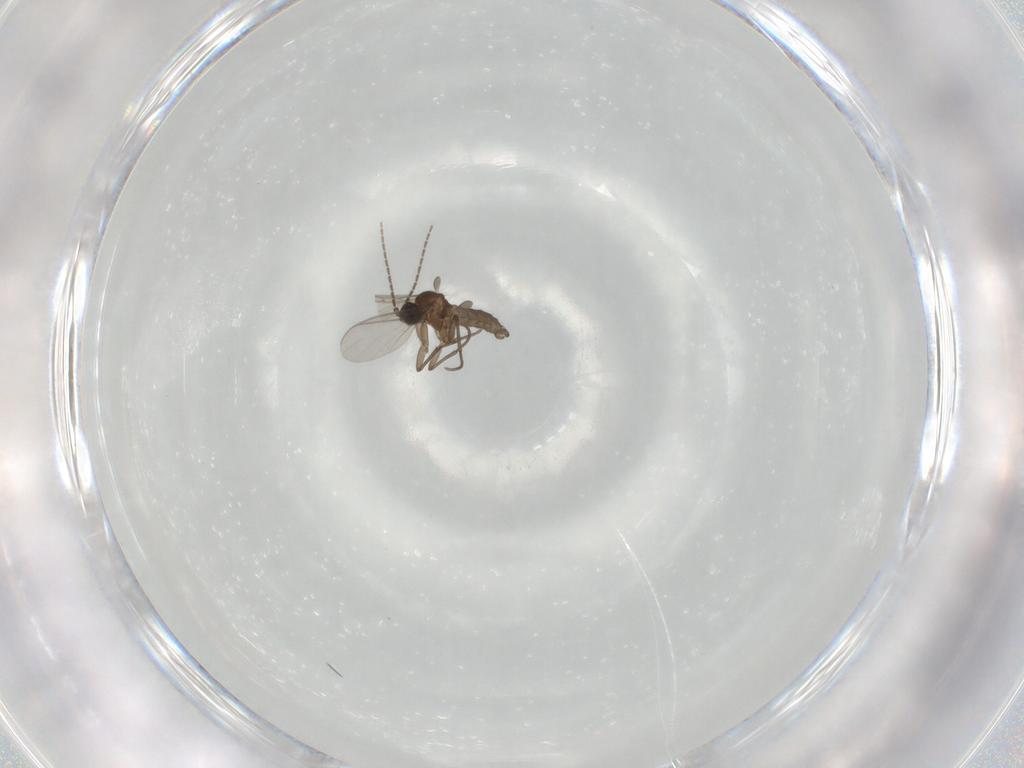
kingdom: Animalia
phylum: Arthropoda
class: Insecta
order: Diptera
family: Sciaridae
